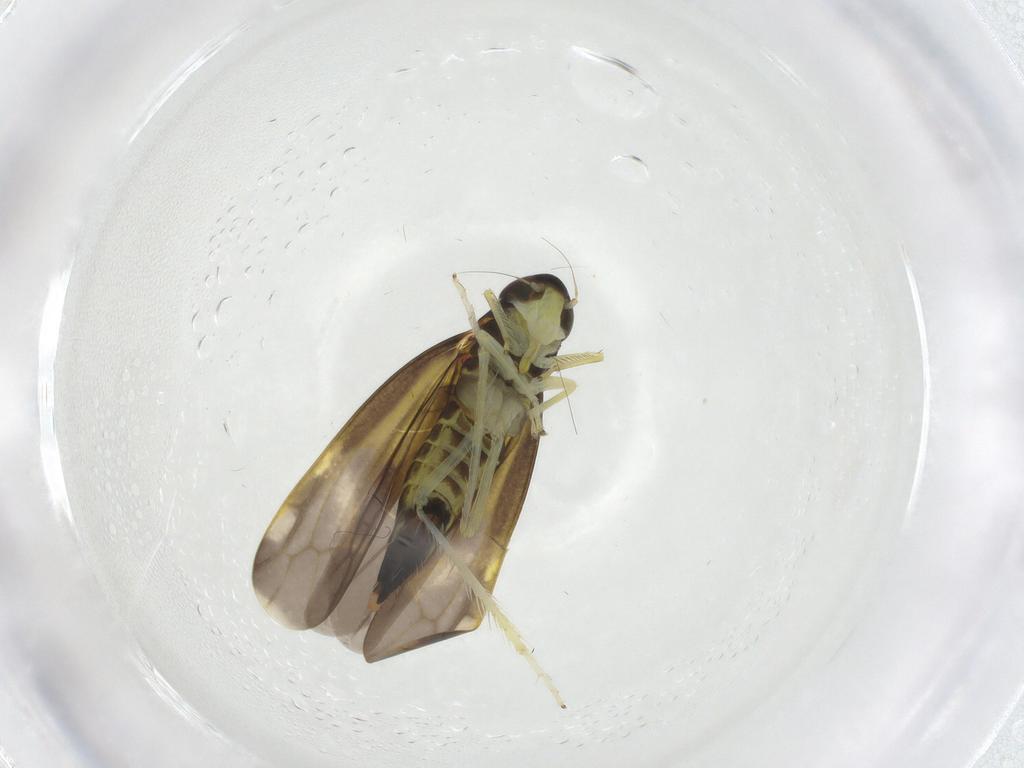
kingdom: Animalia
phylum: Arthropoda
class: Insecta
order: Hemiptera
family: Cicadellidae
